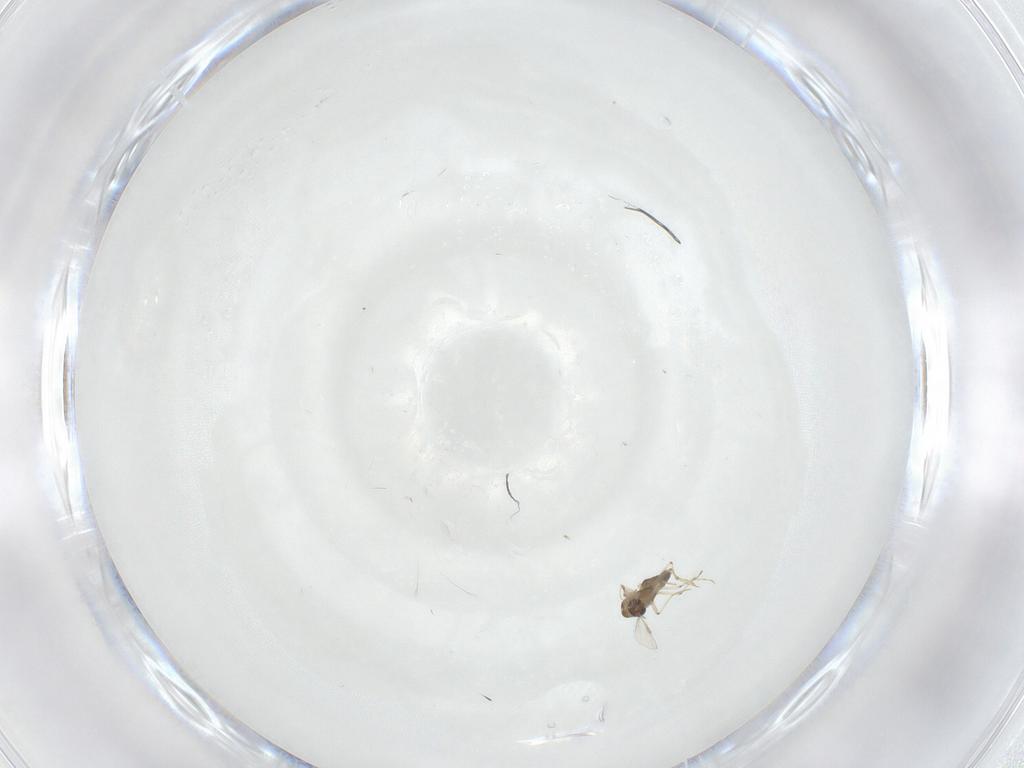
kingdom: Animalia
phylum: Arthropoda
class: Insecta
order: Diptera
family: Chironomidae
